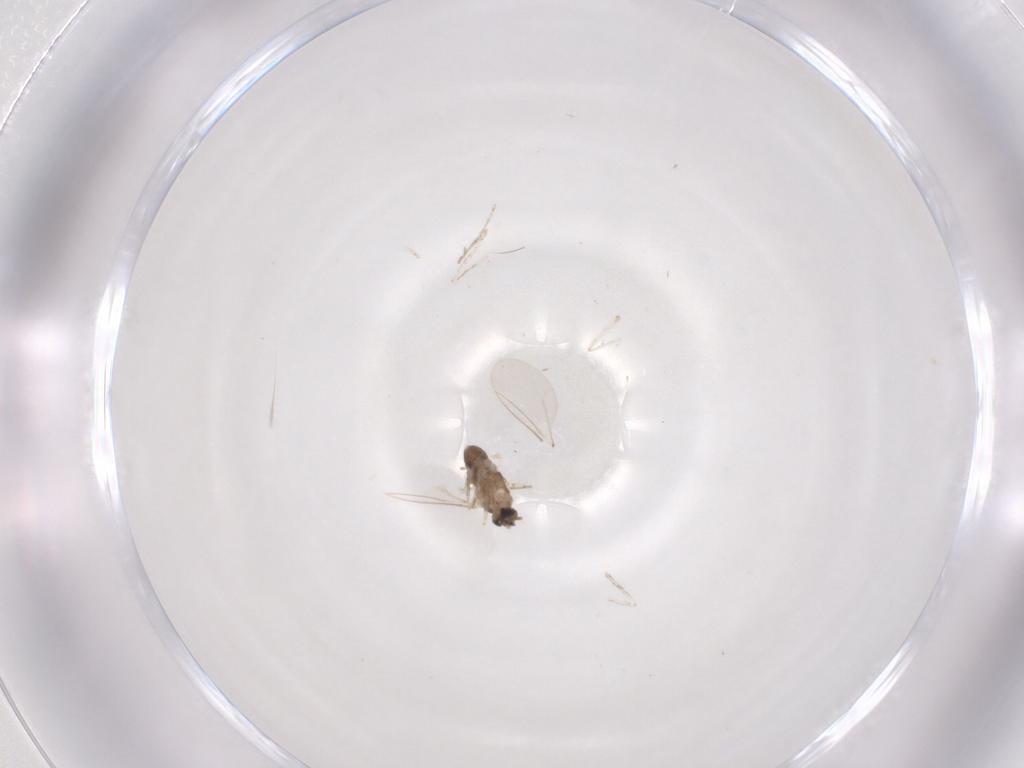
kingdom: Animalia
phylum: Arthropoda
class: Insecta
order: Diptera
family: Cecidomyiidae
